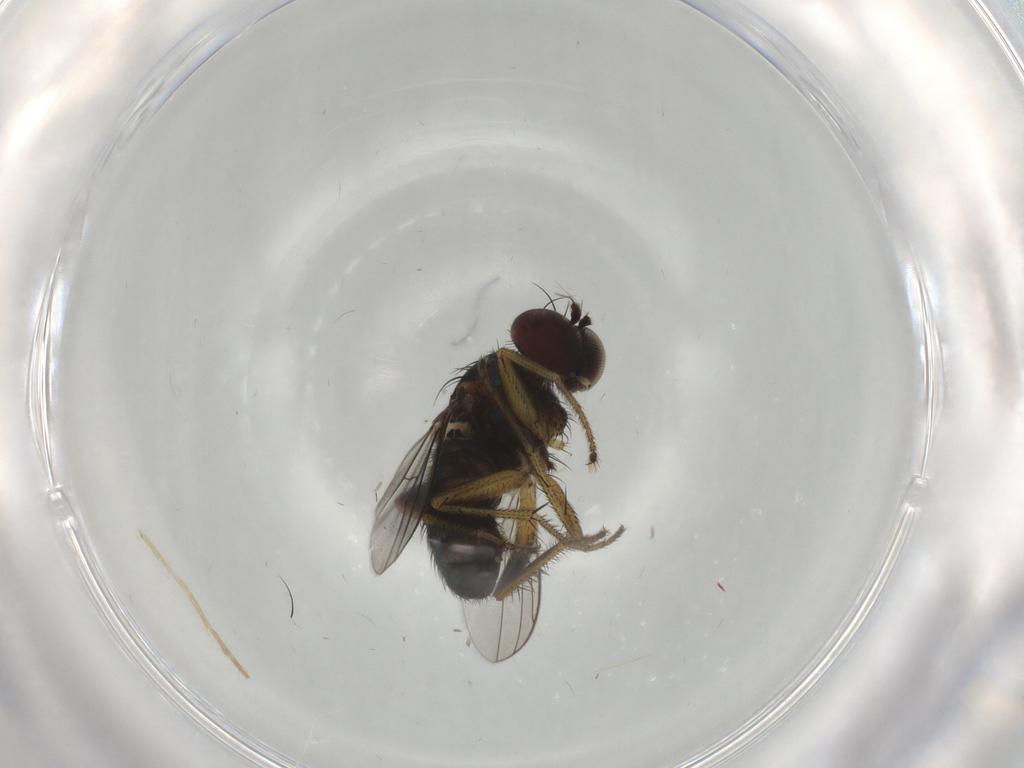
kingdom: Animalia
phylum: Arthropoda
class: Insecta
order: Diptera
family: Dolichopodidae
